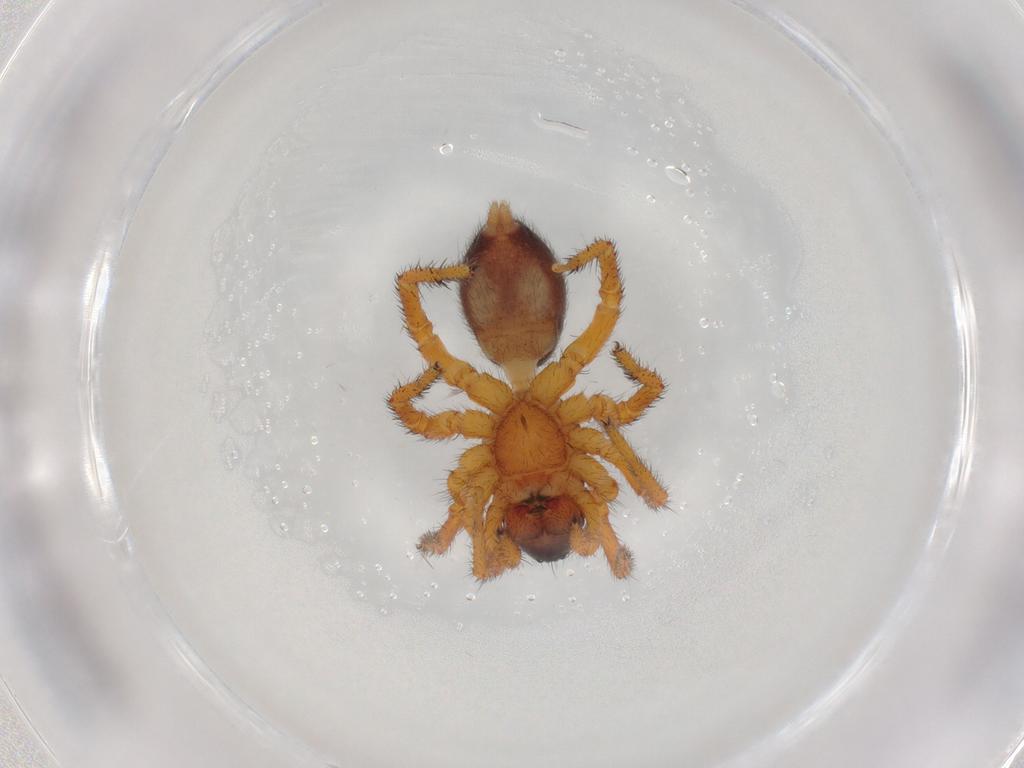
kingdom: Animalia
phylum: Arthropoda
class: Arachnida
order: Araneae
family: Zodariidae
